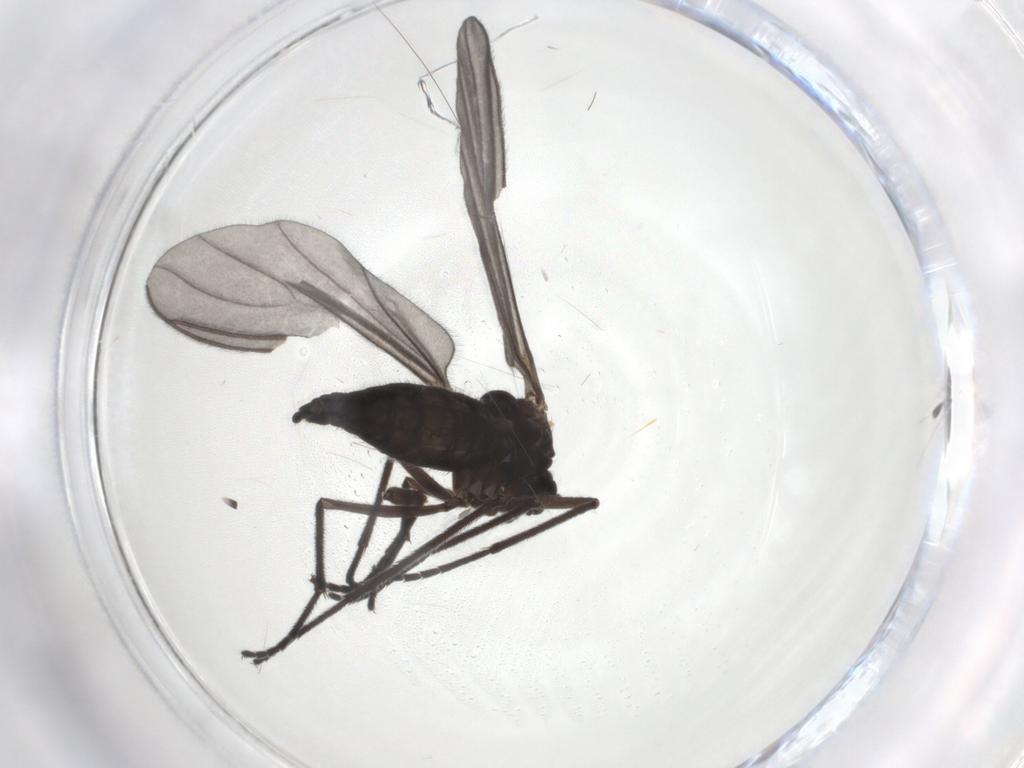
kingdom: Animalia
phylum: Arthropoda
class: Insecta
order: Diptera
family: Sciaridae
